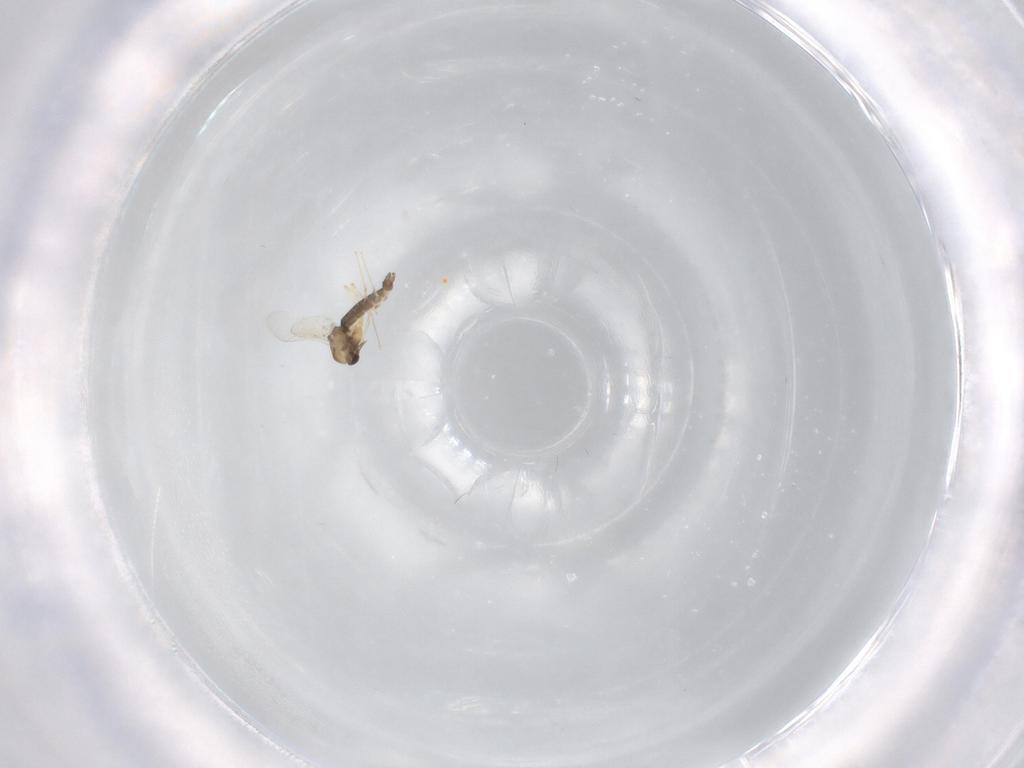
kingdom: Animalia
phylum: Arthropoda
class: Insecta
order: Diptera
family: Chironomidae
